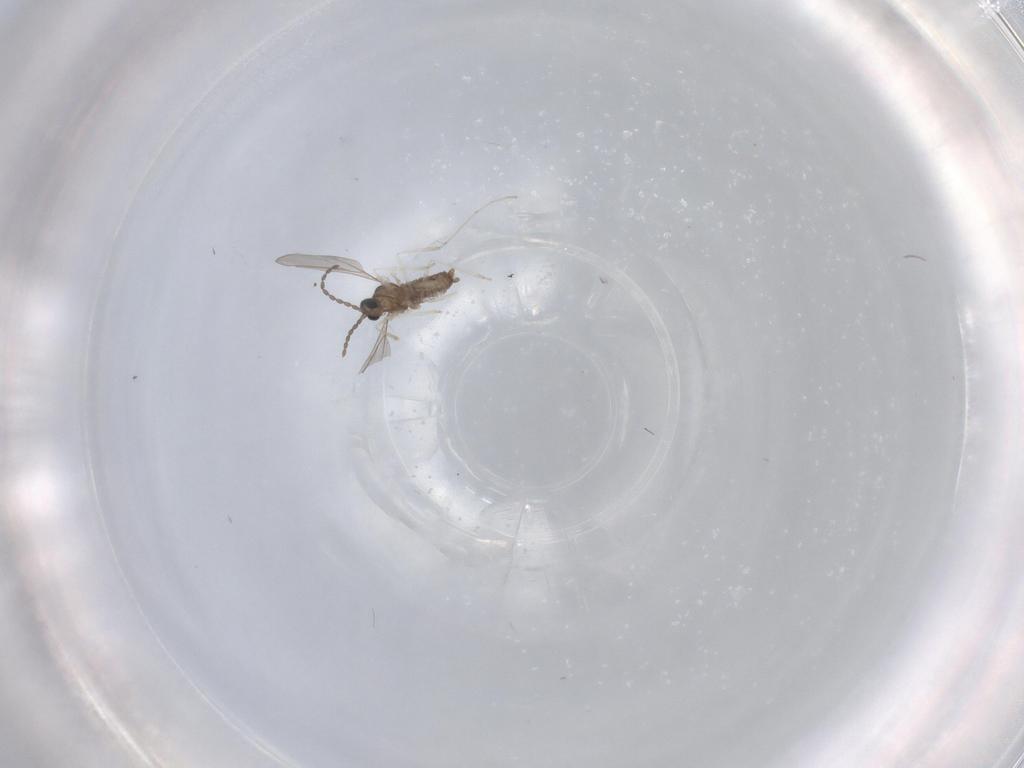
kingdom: Animalia
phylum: Arthropoda
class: Insecta
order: Diptera
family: Cecidomyiidae
